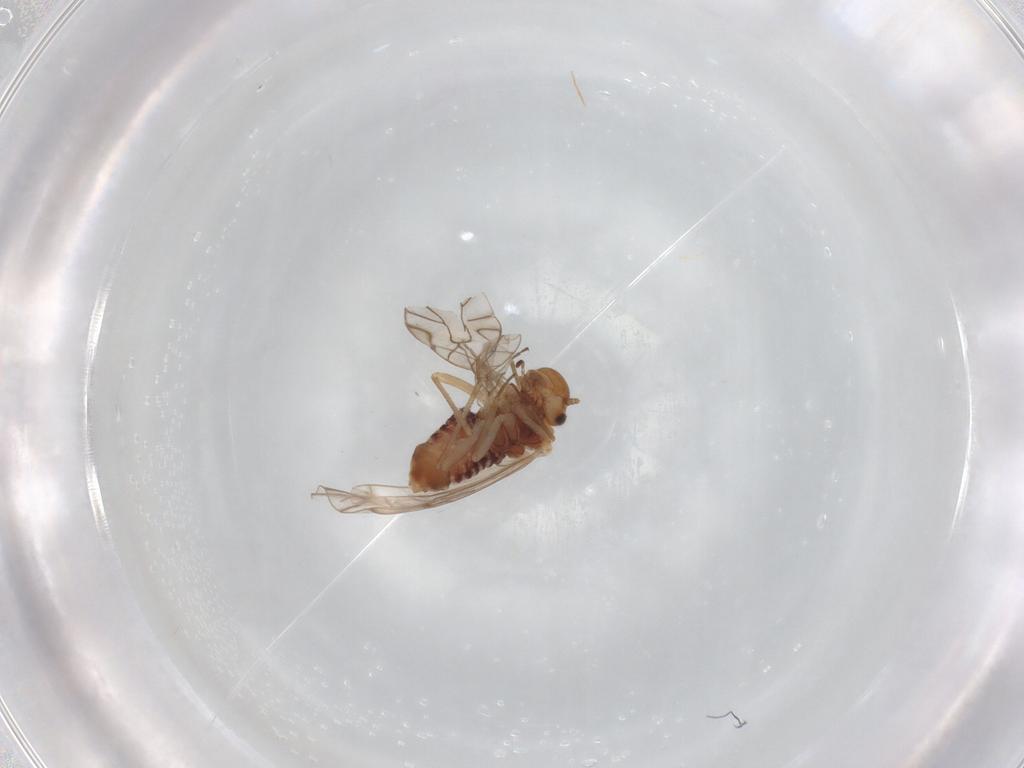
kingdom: Animalia
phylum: Arthropoda
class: Insecta
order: Psocodea
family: Lachesillidae
